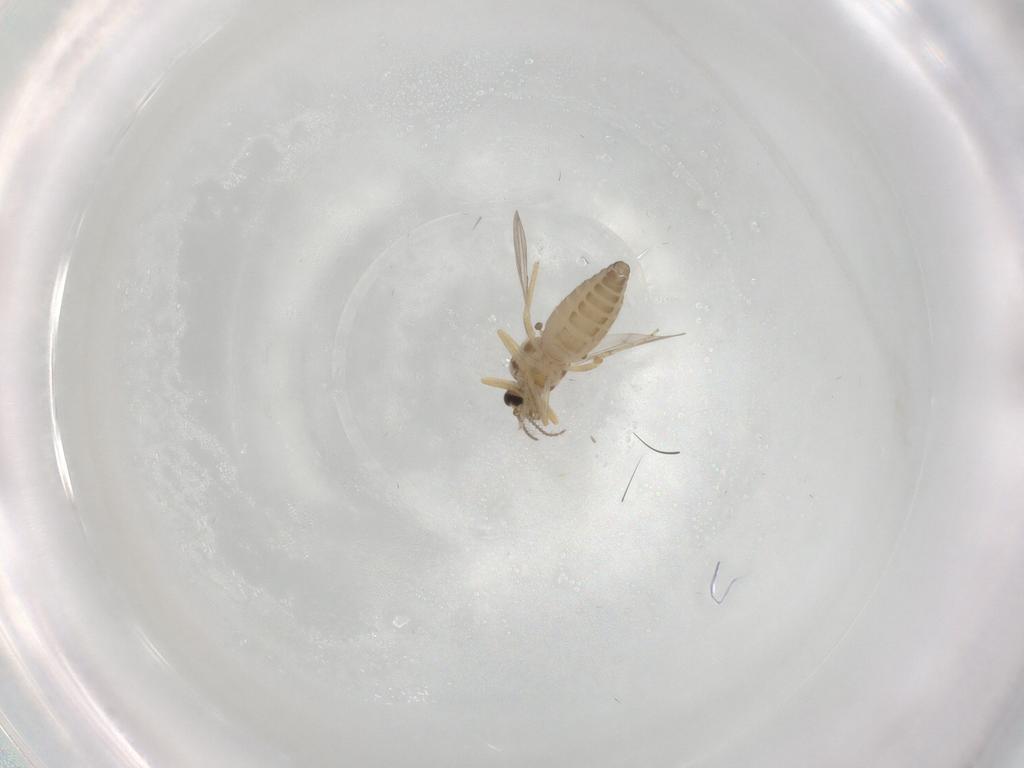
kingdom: Animalia
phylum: Arthropoda
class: Insecta
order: Diptera
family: Ceratopogonidae
